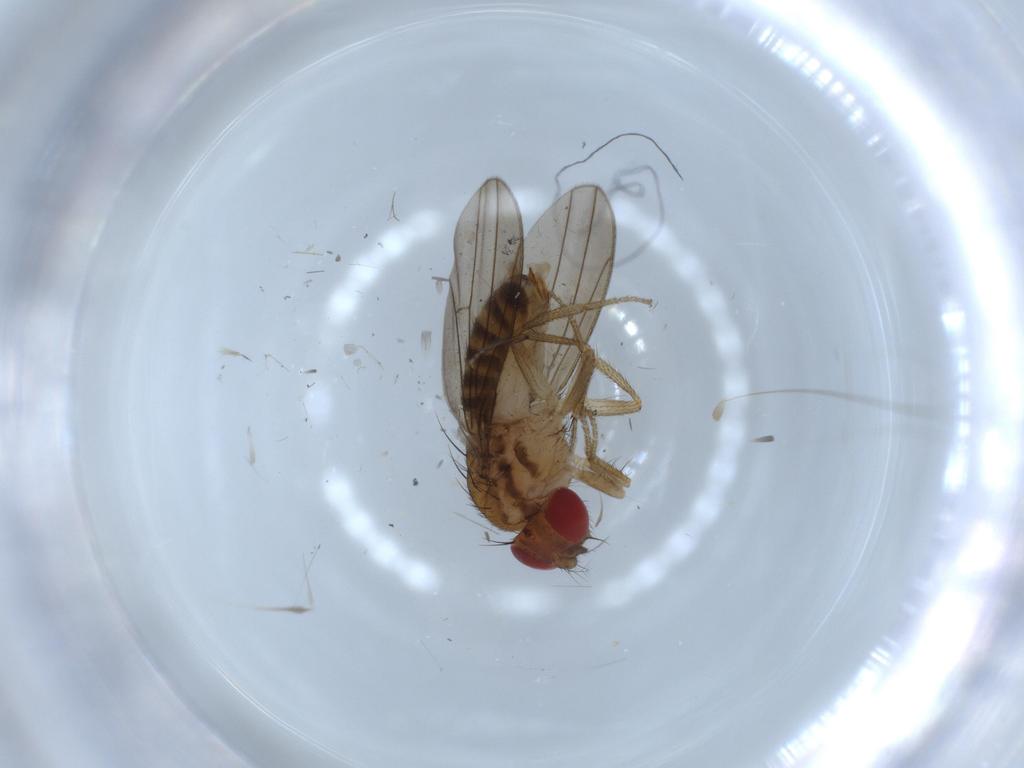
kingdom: Animalia
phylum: Arthropoda
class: Insecta
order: Diptera
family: Drosophilidae
